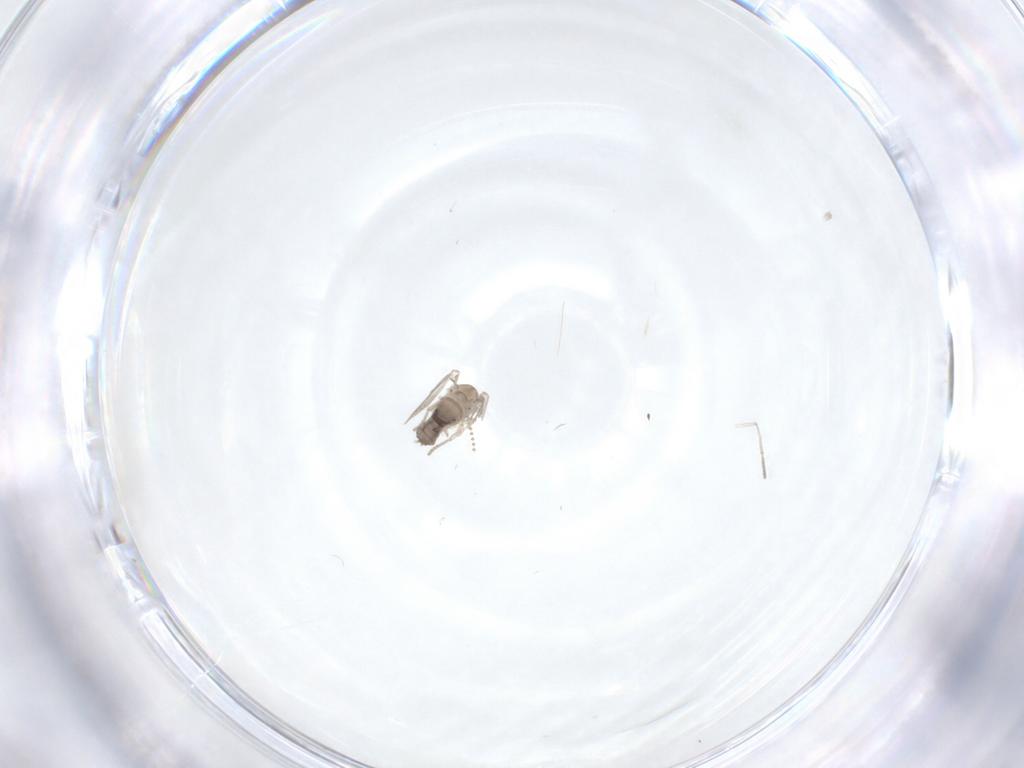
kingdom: Animalia
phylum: Arthropoda
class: Insecta
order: Diptera
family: Psychodidae
